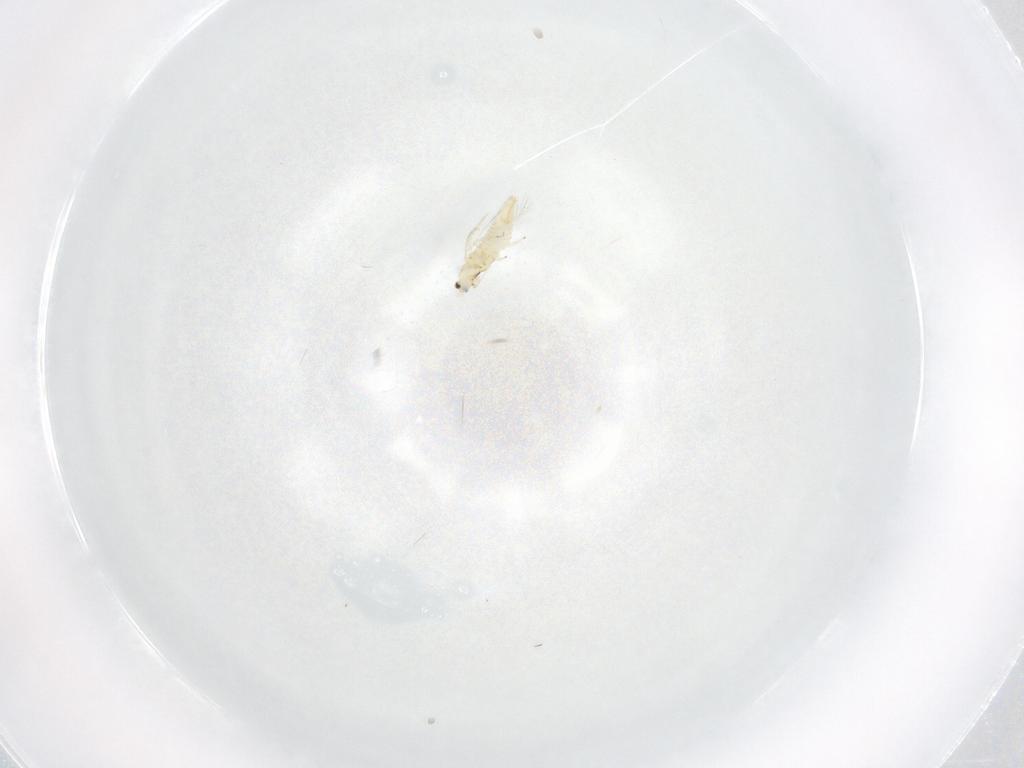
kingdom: Animalia
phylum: Arthropoda
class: Insecta
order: Thysanoptera
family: Thripidae
